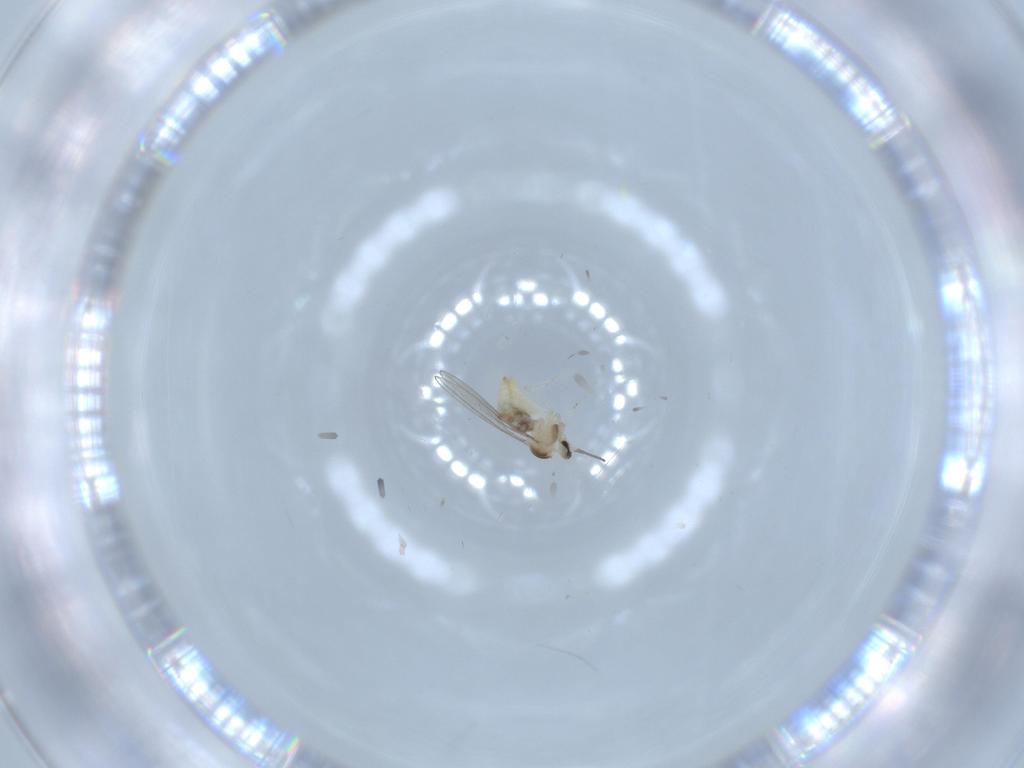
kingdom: Animalia
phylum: Arthropoda
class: Insecta
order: Diptera
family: Cecidomyiidae
